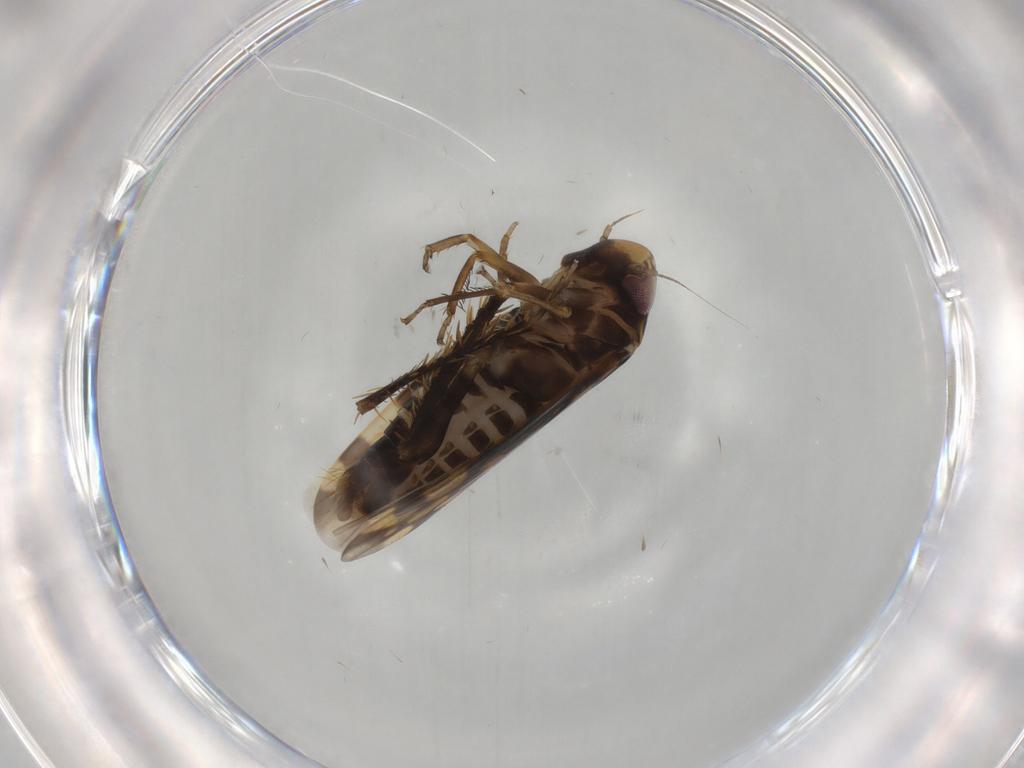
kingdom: Animalia
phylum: Arthropoda
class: Insecta
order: Hemiptera
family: Cicadellidae
